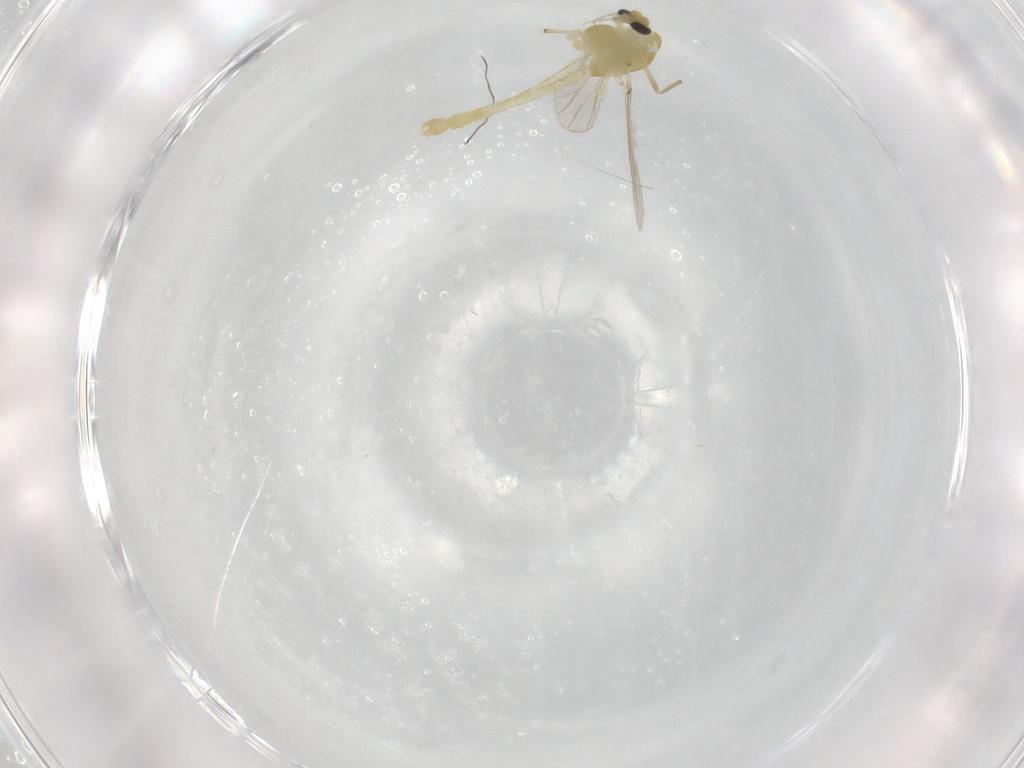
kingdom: Animalia
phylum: Arthropoda
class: Insecta
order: Diptera
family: Chironomidae
